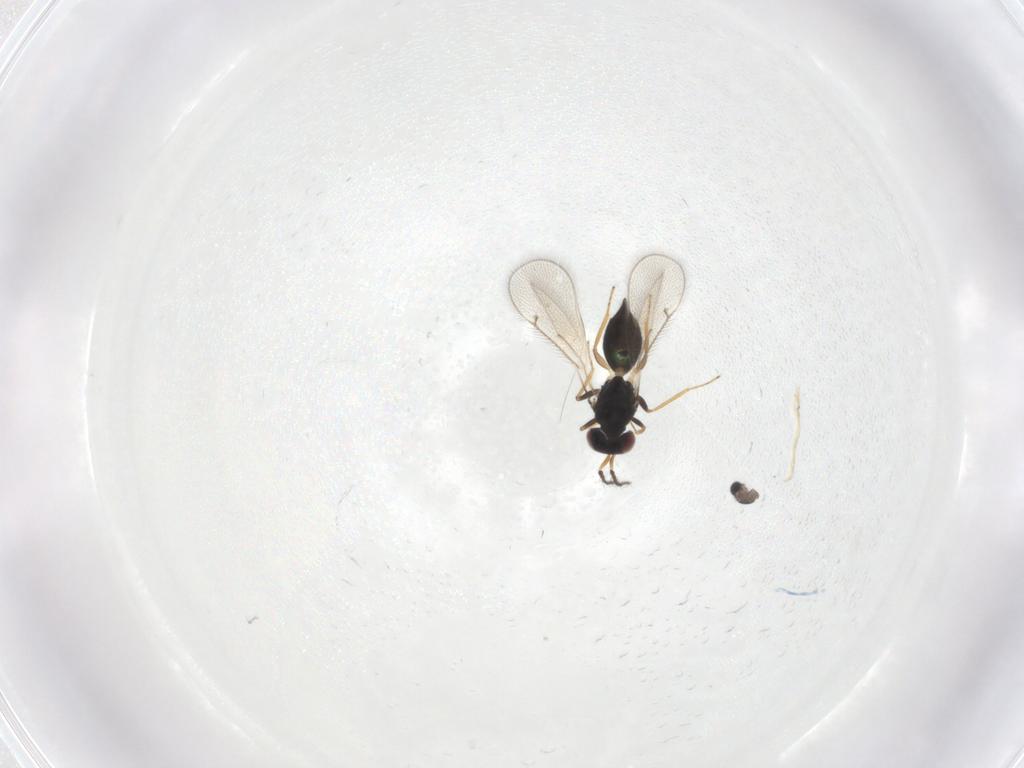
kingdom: Animalia
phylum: Arthropoda
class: Insecta
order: Hymenoptera
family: Eulophidae
